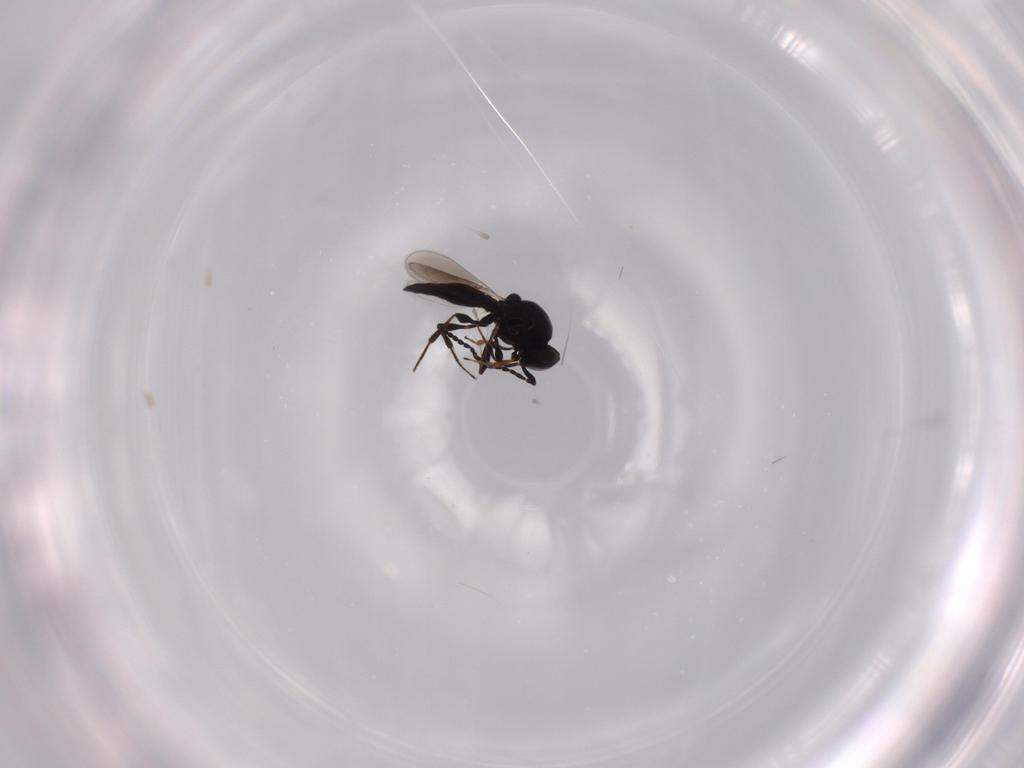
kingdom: Animalia
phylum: Arthropoda
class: Insecta
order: Hymenoptera
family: Platygastridae
